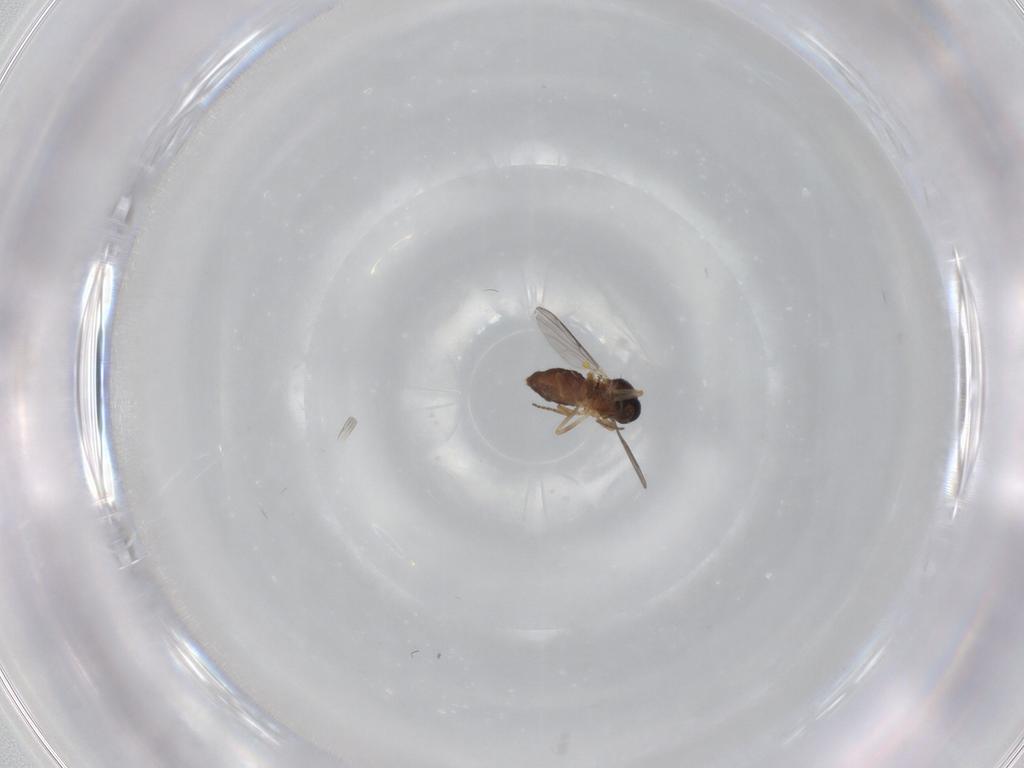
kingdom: Animalia
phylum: Arthropoda
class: Insecta
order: Diptera
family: Ceratopogonidae
